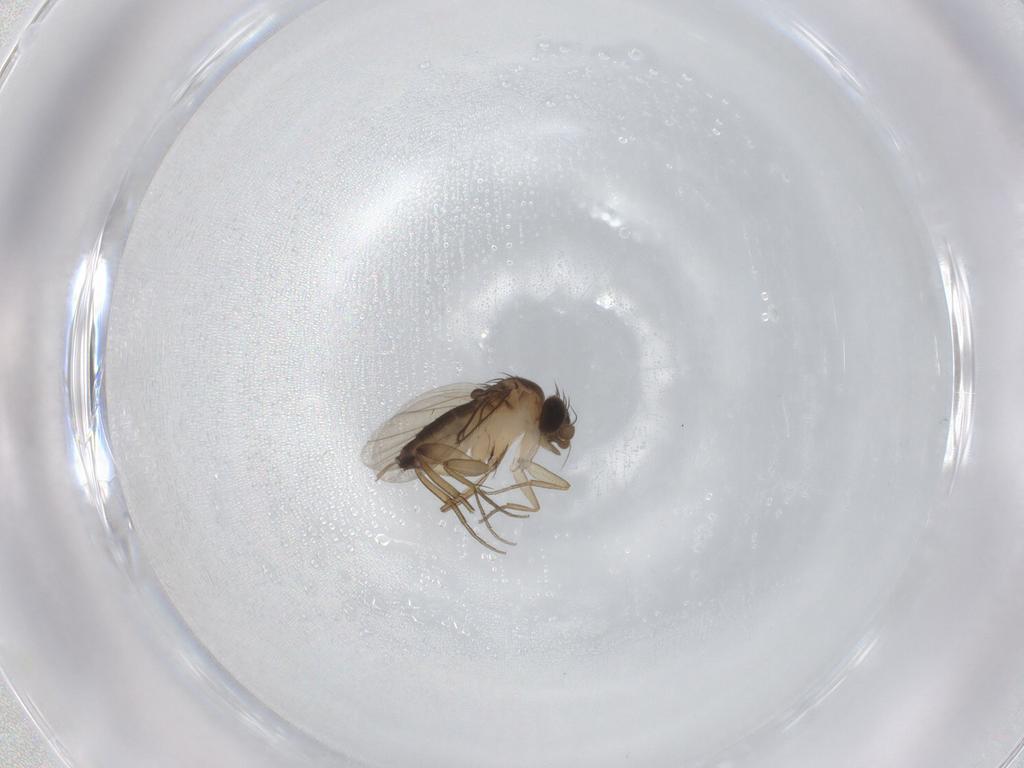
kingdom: Animalia
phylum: Arthropoda
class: Insecta
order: Diptera
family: Phoridae
